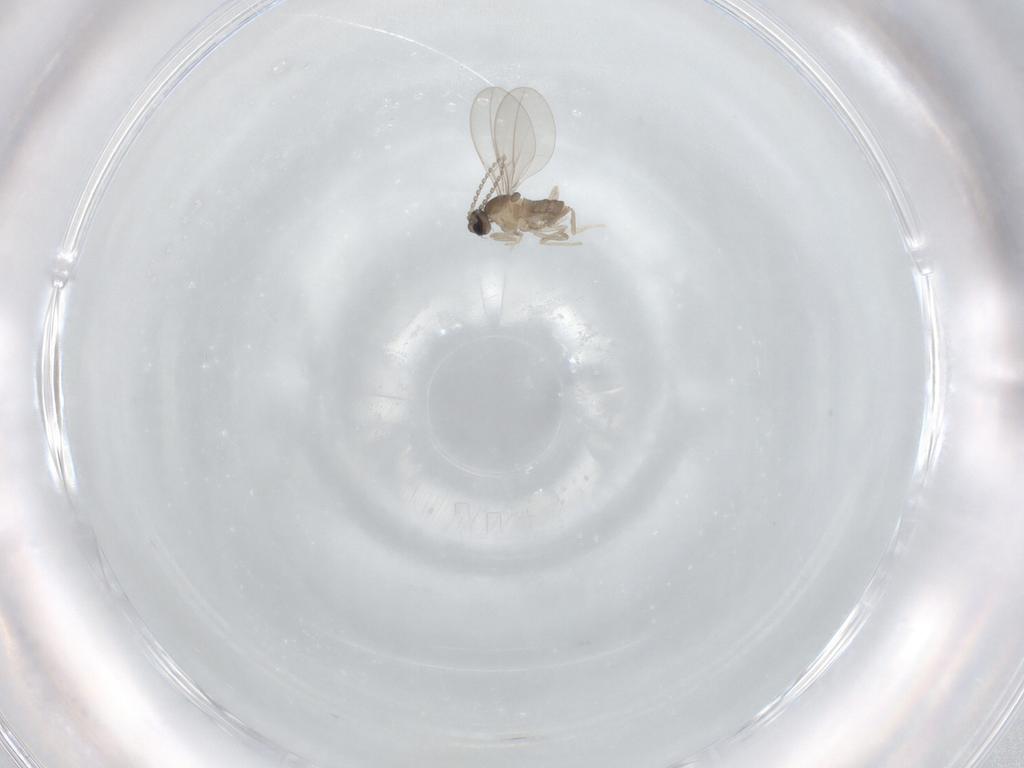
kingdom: Animalia
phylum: Arthropoda
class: Insecta
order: Diptera
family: Cecidomyiidae
